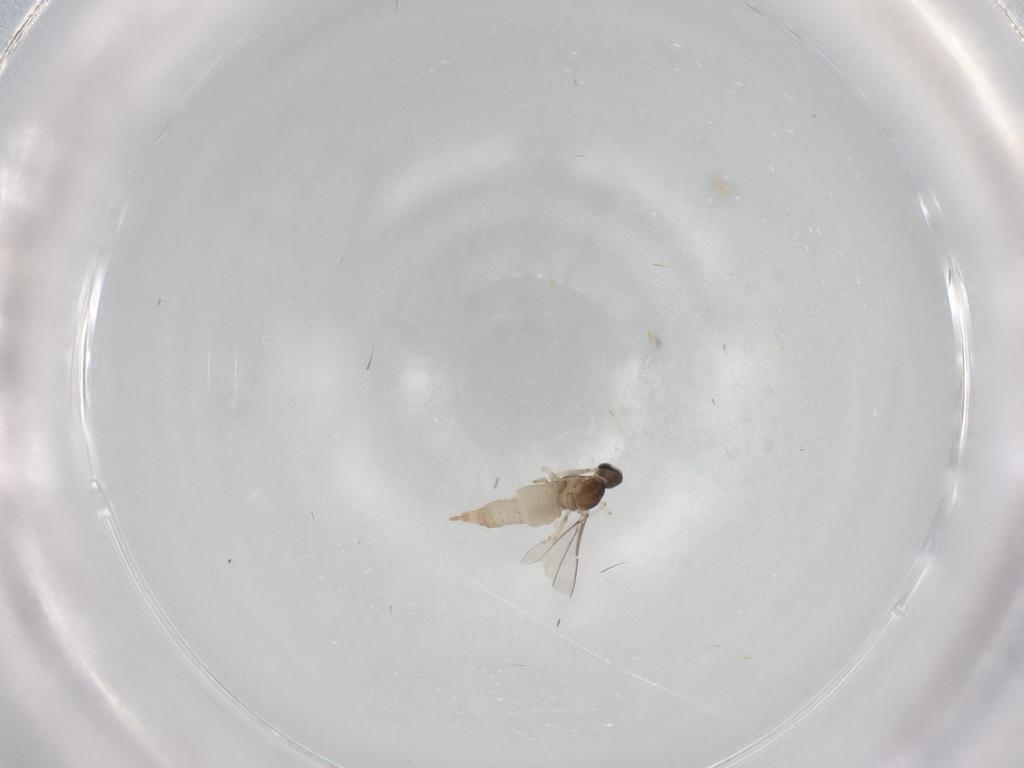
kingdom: Animalia
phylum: Arthropoda
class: Insecta
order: Diptera
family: Cecidomyiidae
